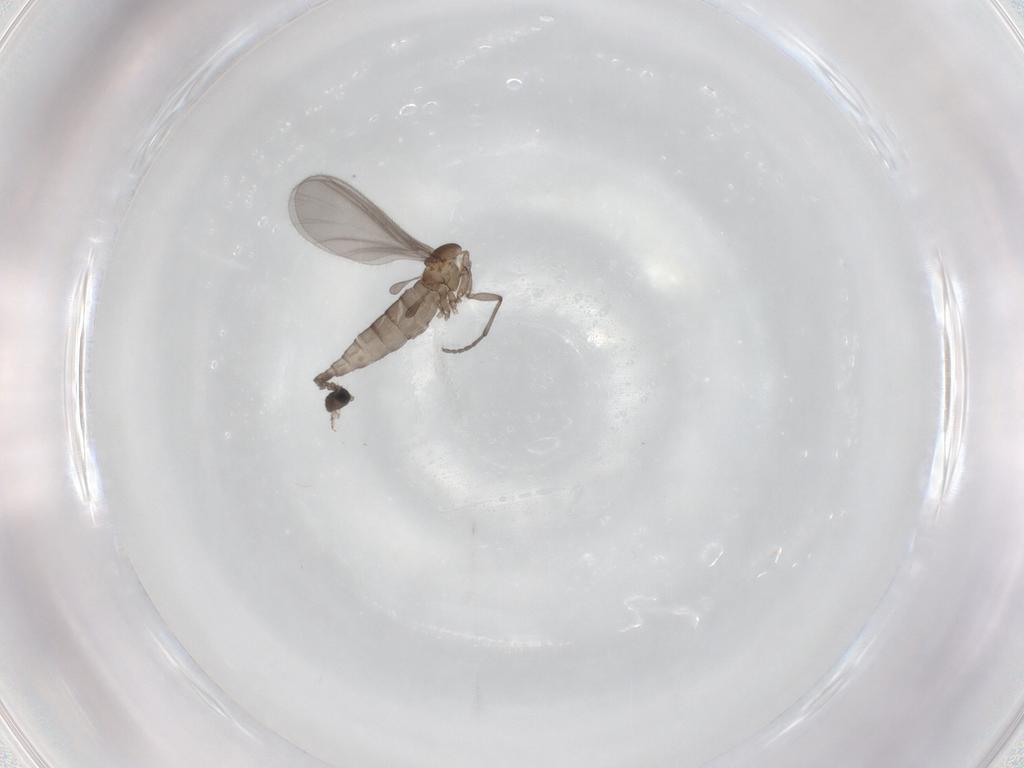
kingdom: Animalia
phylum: Arthropoda
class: Insecta
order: Diptera
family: Sciaridae
